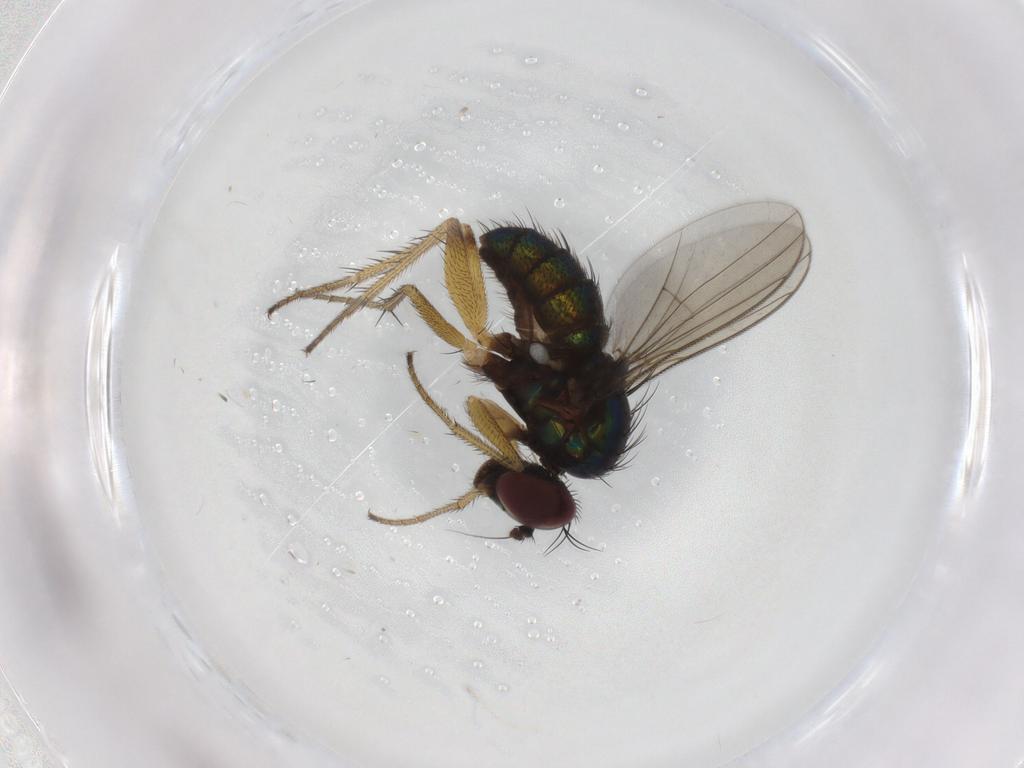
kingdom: Animalia
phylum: Arthropoda
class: Insecta
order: Diptera
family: Dolichopodidae
